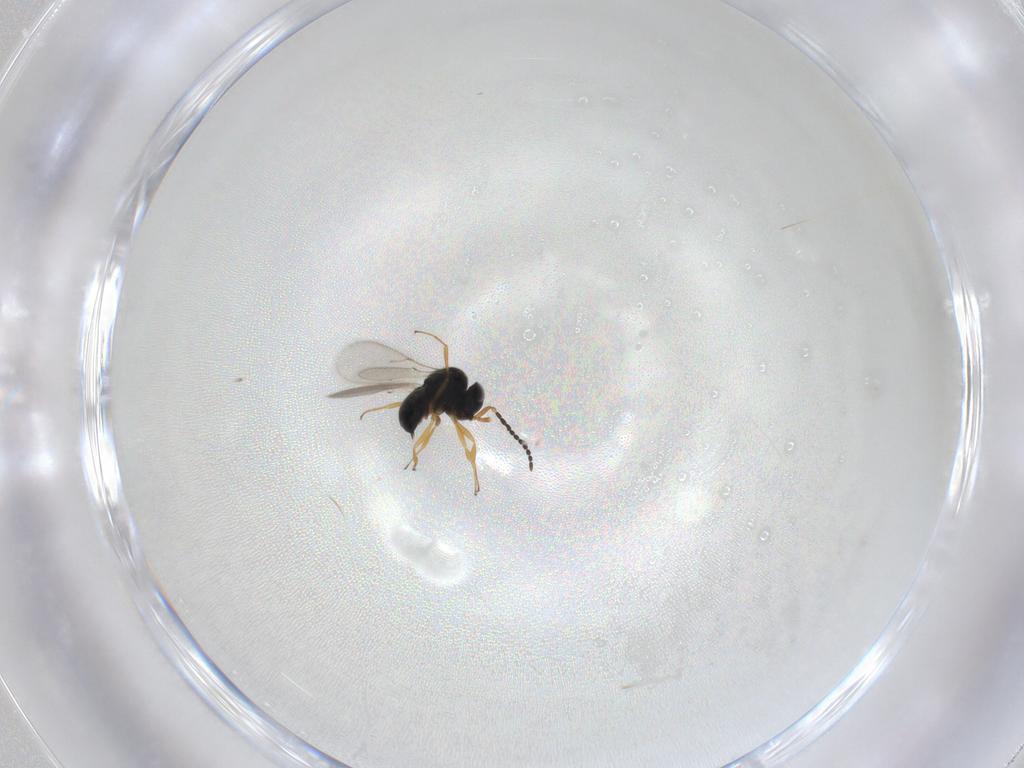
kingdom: Animalia
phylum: Arthropoda
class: Insecta
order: Hymenoptera
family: Scelionidae
